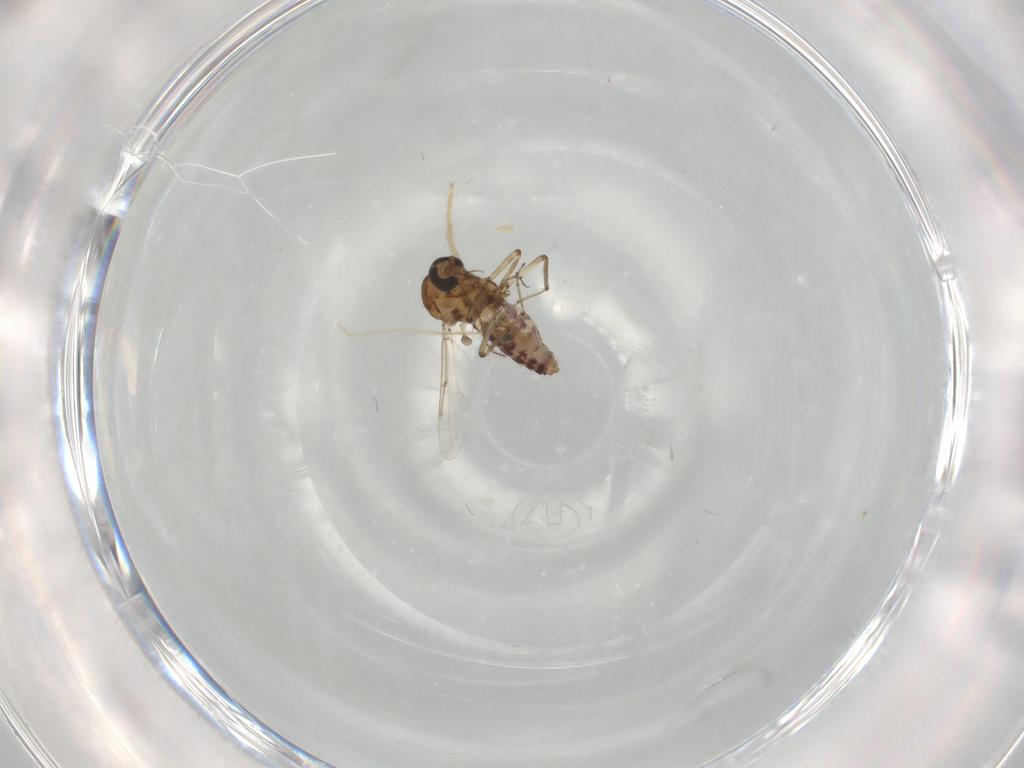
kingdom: Animalia
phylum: Arthropoda
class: Insecta
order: Diptera
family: Ceratopogonidae
